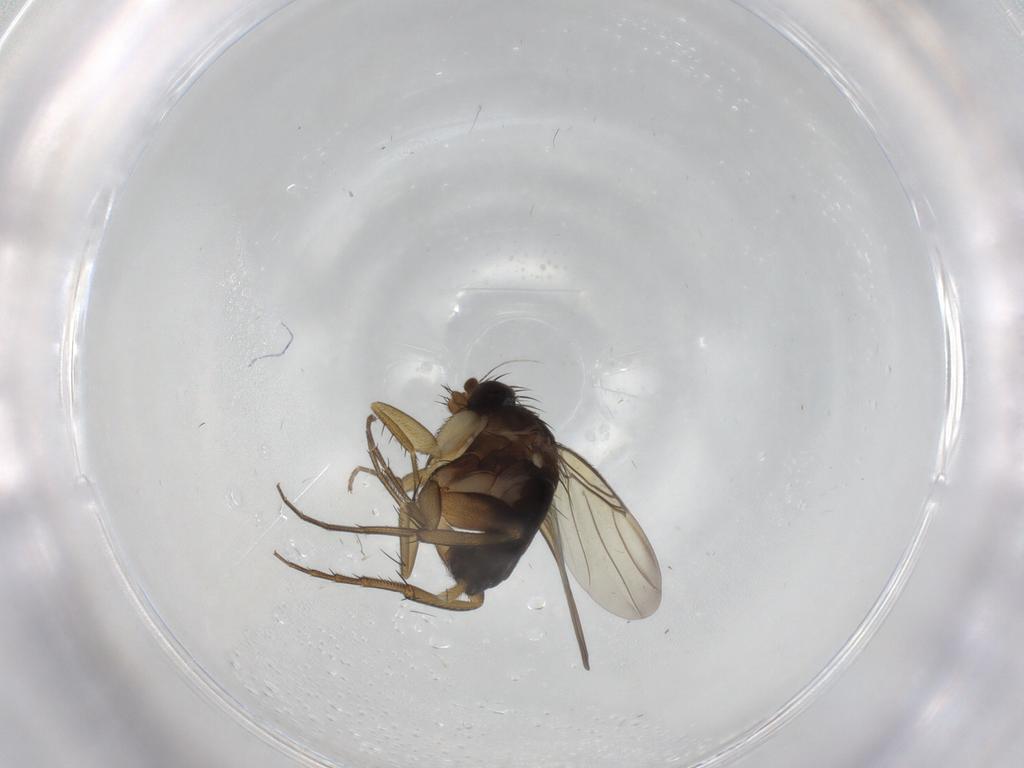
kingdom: Animalia
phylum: Arthropoda
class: Insecta
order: Diptera
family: Phoridae
